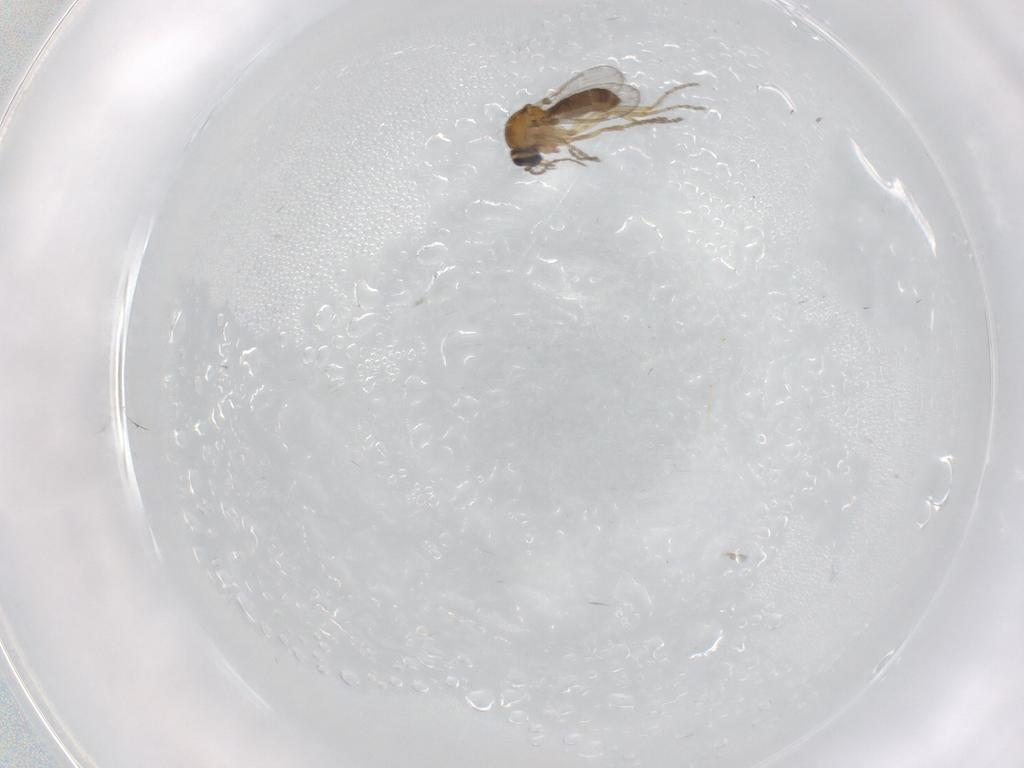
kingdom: Animalia
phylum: Arthropoda
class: Insecta
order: Diptera
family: Ceratopogonidae
